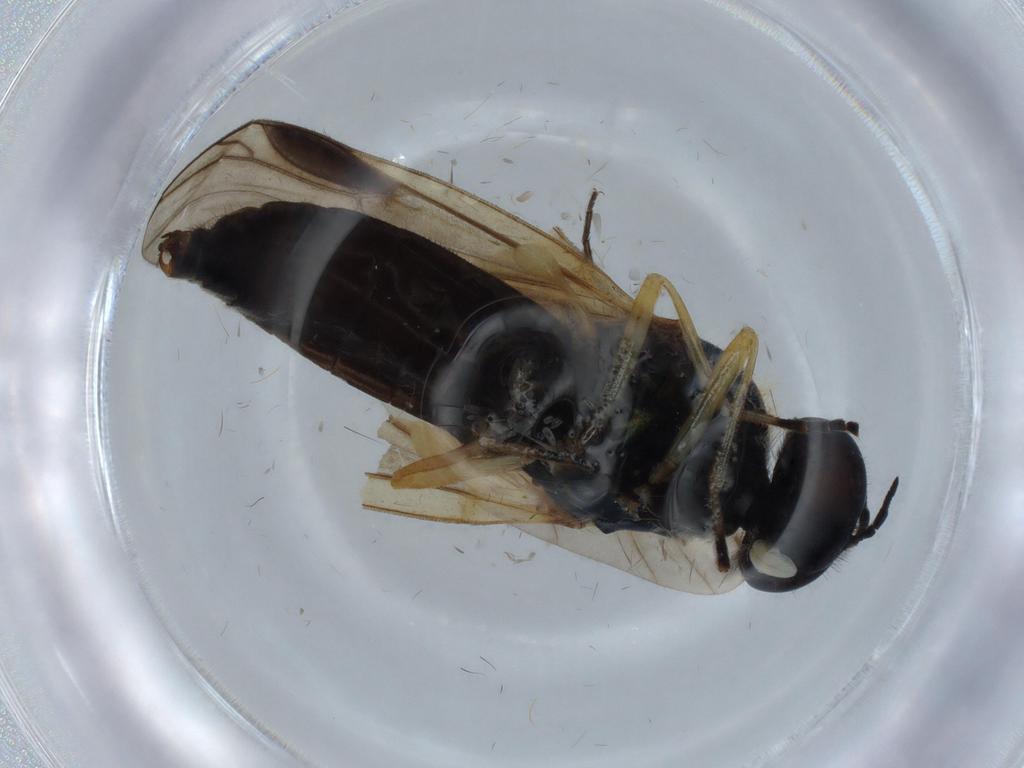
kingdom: Animalia
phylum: Arthropoda
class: Insecta
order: Diptera
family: Stratiomyidae
